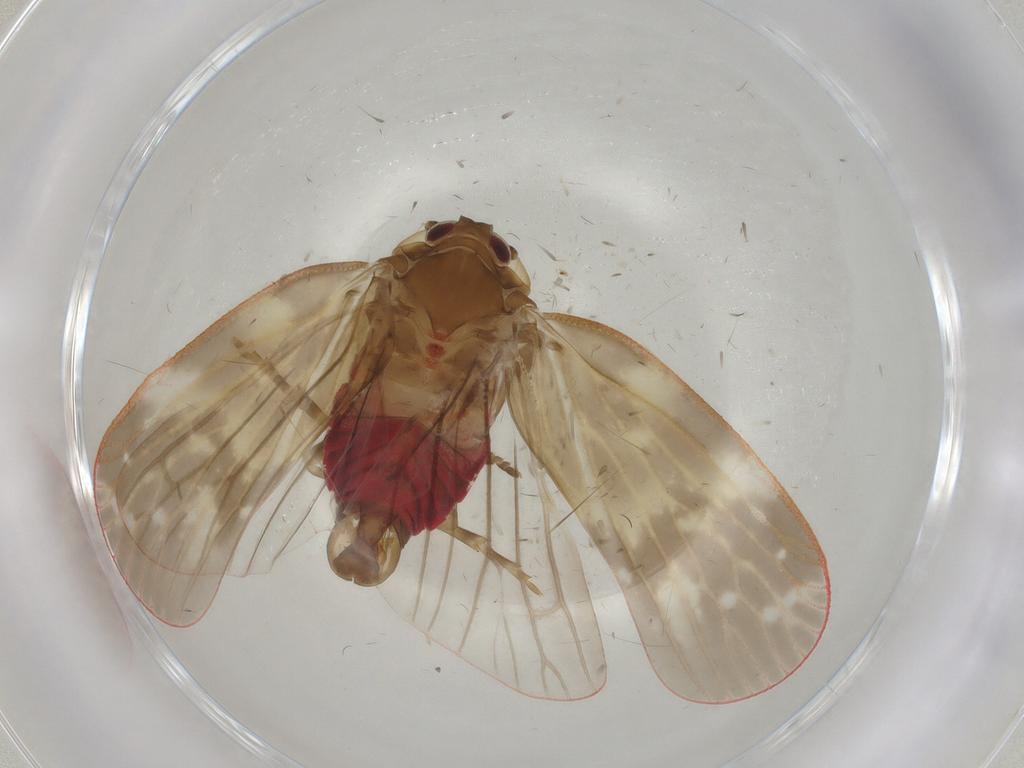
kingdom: Animalia
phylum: Arthropoda
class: Insecta
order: Hemiptera
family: Achilidae
